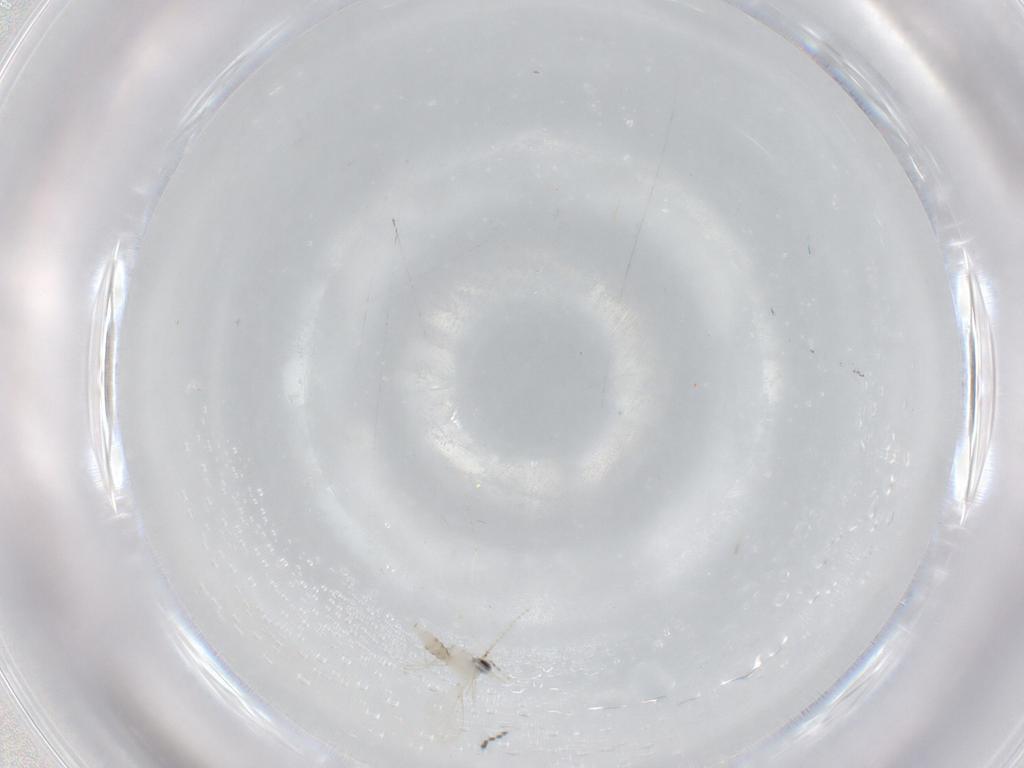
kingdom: Animalia
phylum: Arthropoda
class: Insecta
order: Diptera
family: Cecidomyiidae
